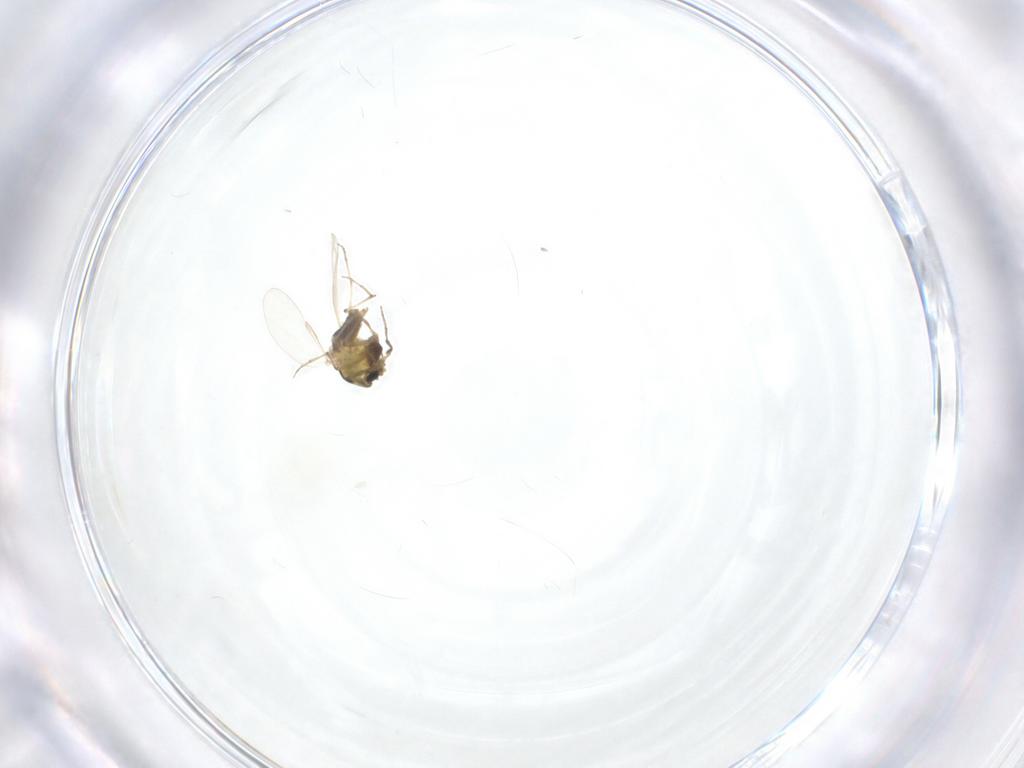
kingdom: Animalia
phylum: Arthropoda
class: Insecta
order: Diptera
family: Chironomidae
